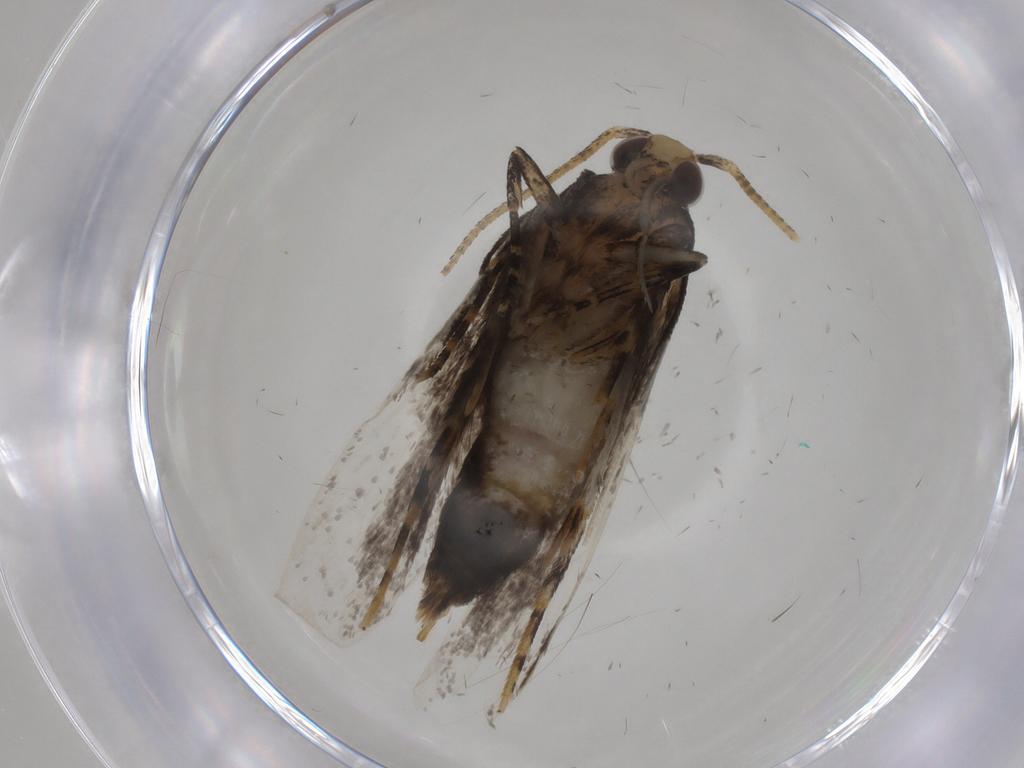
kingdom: Animalia
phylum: Arthropoda
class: Insecta
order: Lepidoptera
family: Gelechiidae
